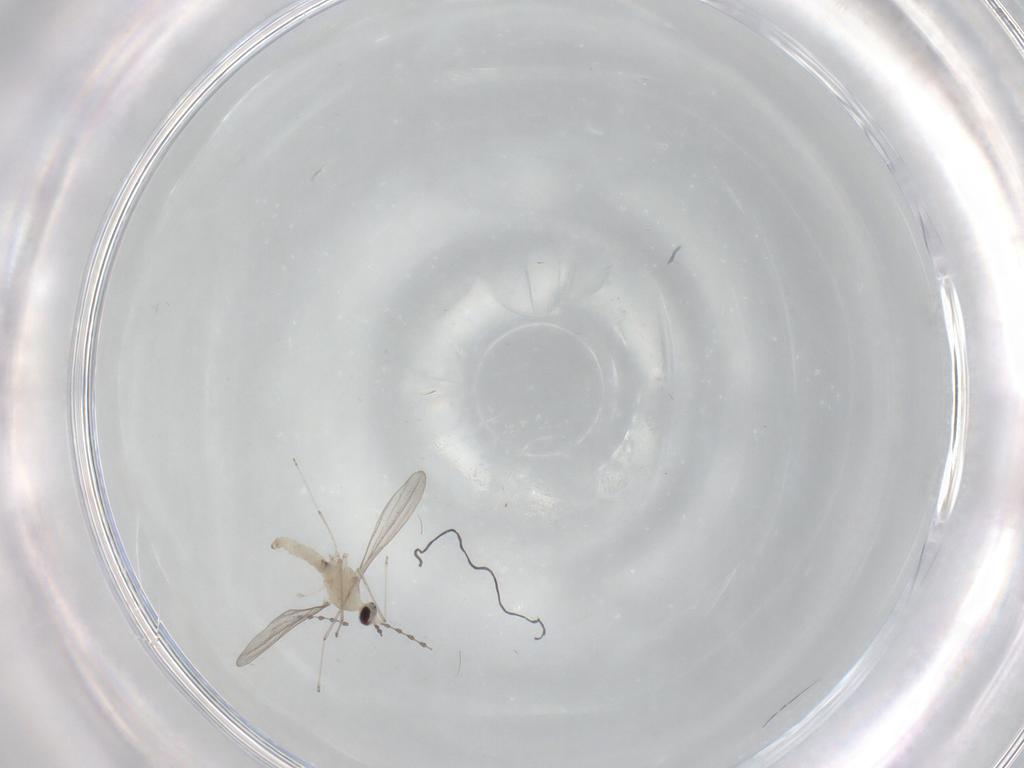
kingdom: Animalia
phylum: Arthropoda
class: Insecta
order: Diptera
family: Cecidomyiidae
